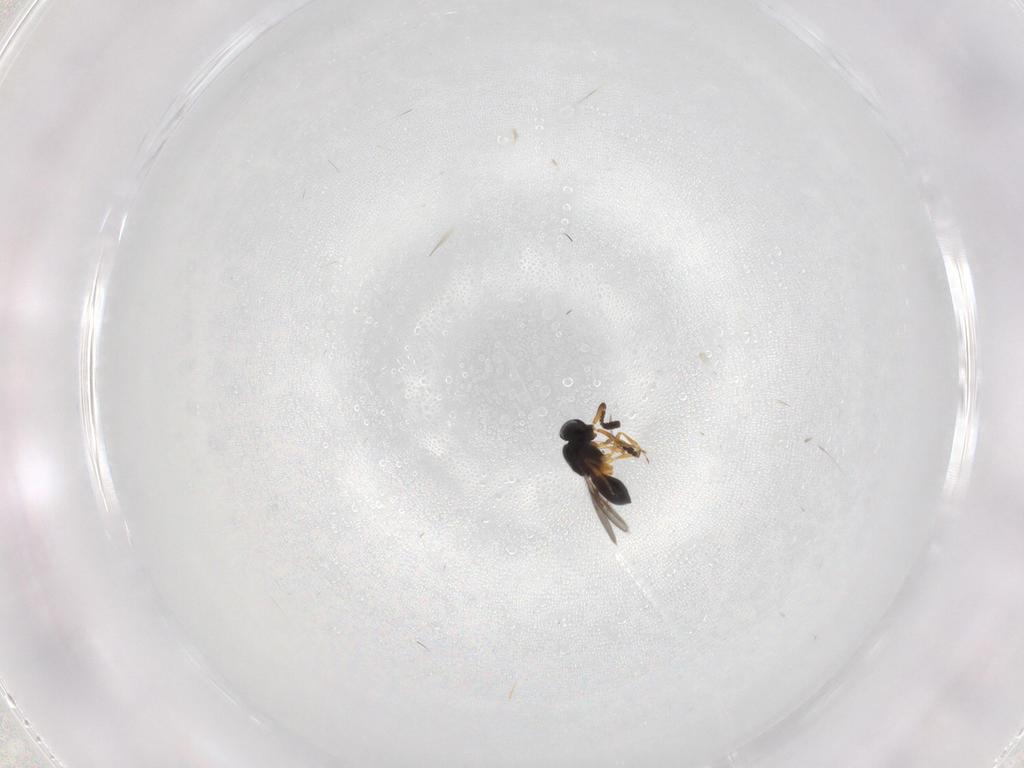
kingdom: Animalia
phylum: Arthropoda
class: Insecta
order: Hymenoptera
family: Scelionidae
